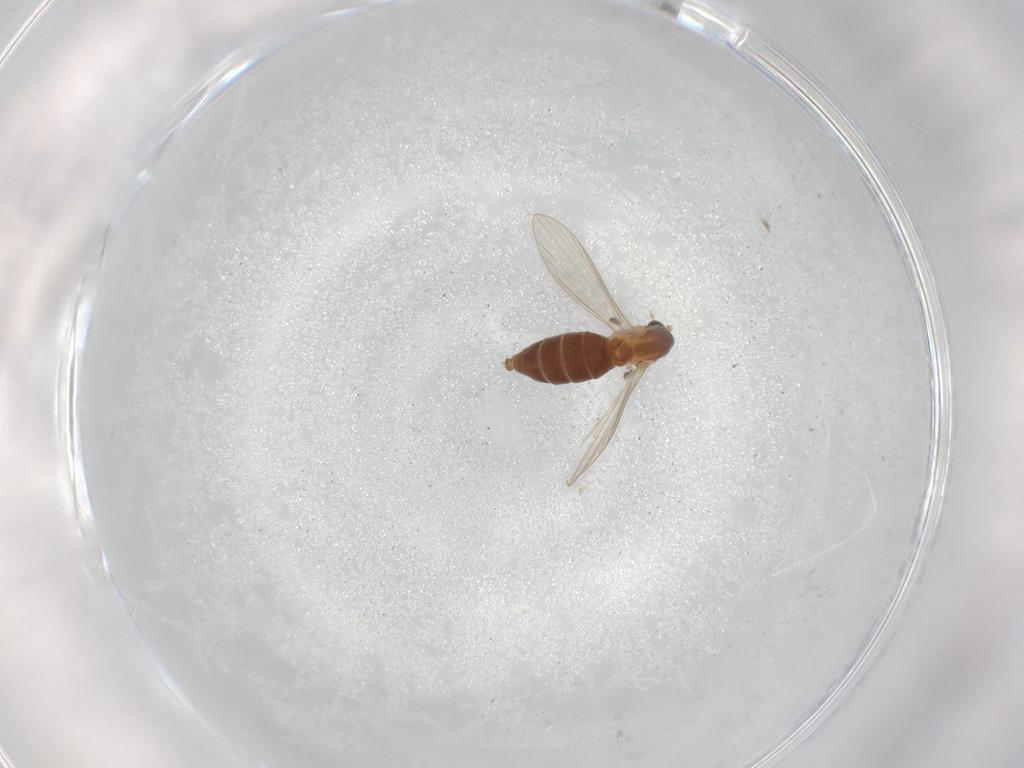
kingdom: Animalia
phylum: Arthropoda
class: Insecta
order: Diptera
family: Psychodidae
